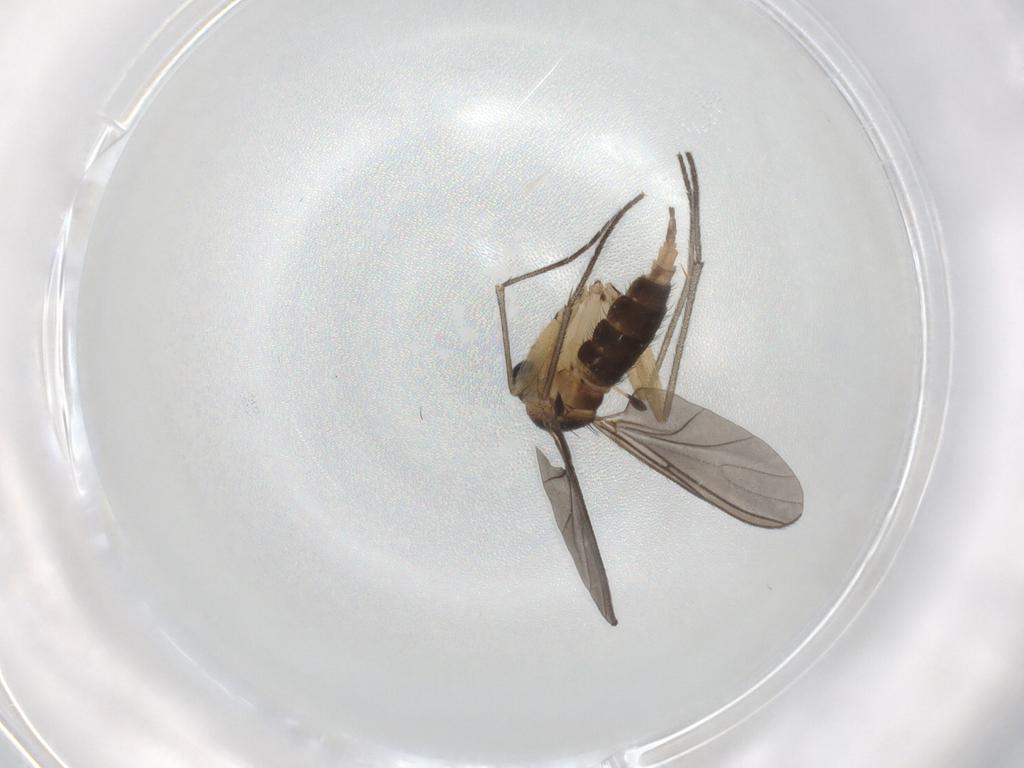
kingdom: Animalia
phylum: Arthropoda
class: Insecta
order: Diptera
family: Sciaridae
